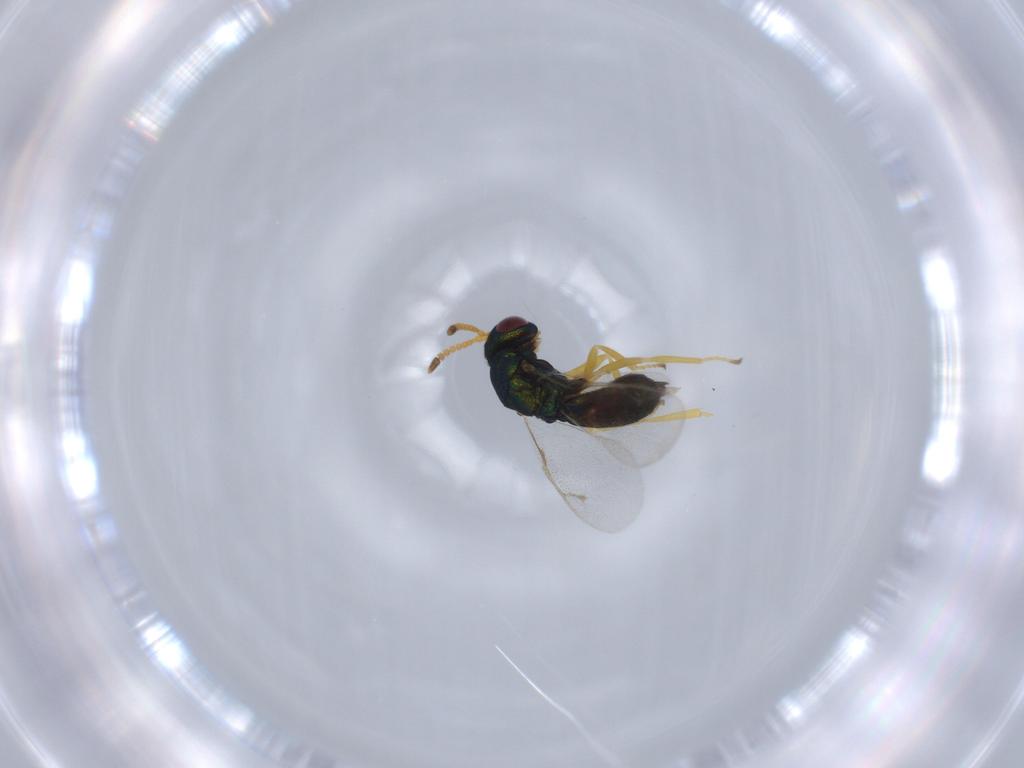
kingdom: Animalia
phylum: Arthropoda
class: Insecta
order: Hymenoptera
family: Pteromalidae
